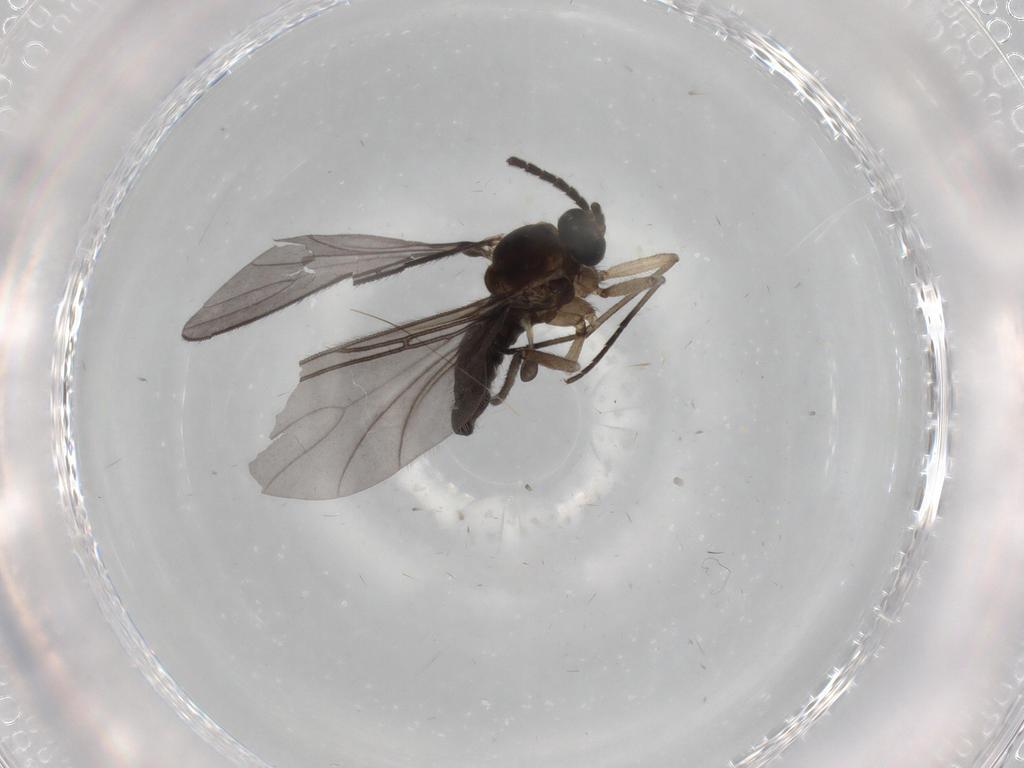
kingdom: Animalia
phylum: Arthropoda
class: Insecta
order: Diptera
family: Sciaridae
